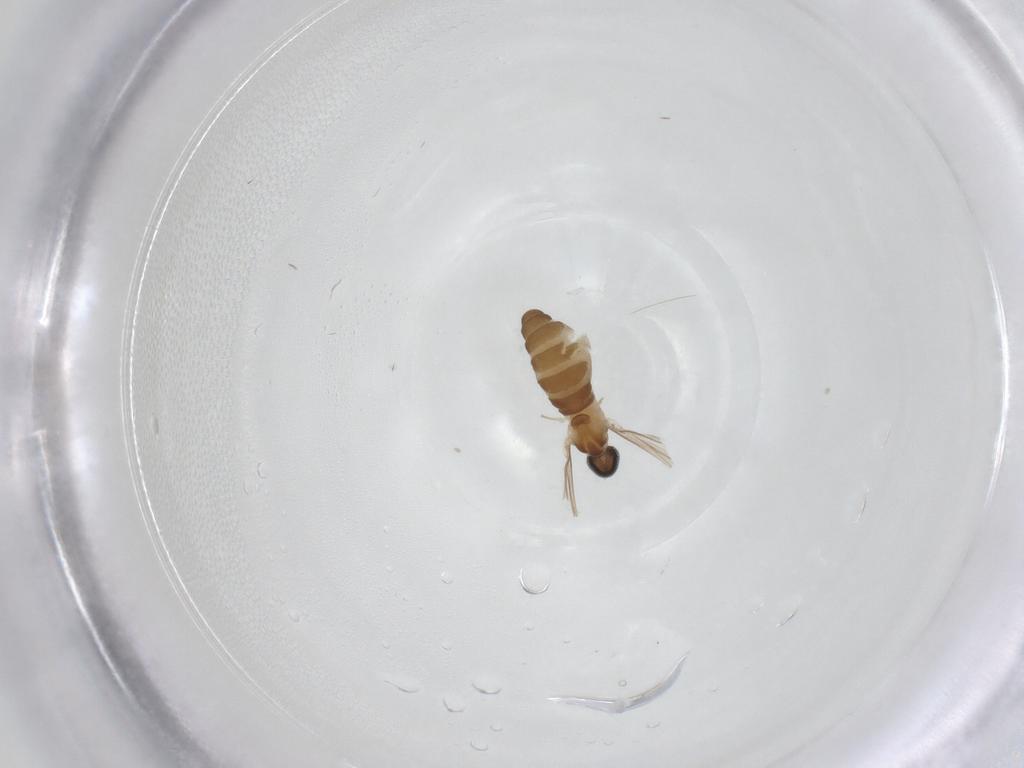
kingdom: Animalia
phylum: Arthropoda
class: Insecta
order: Diptera
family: Cecidomyiidae
